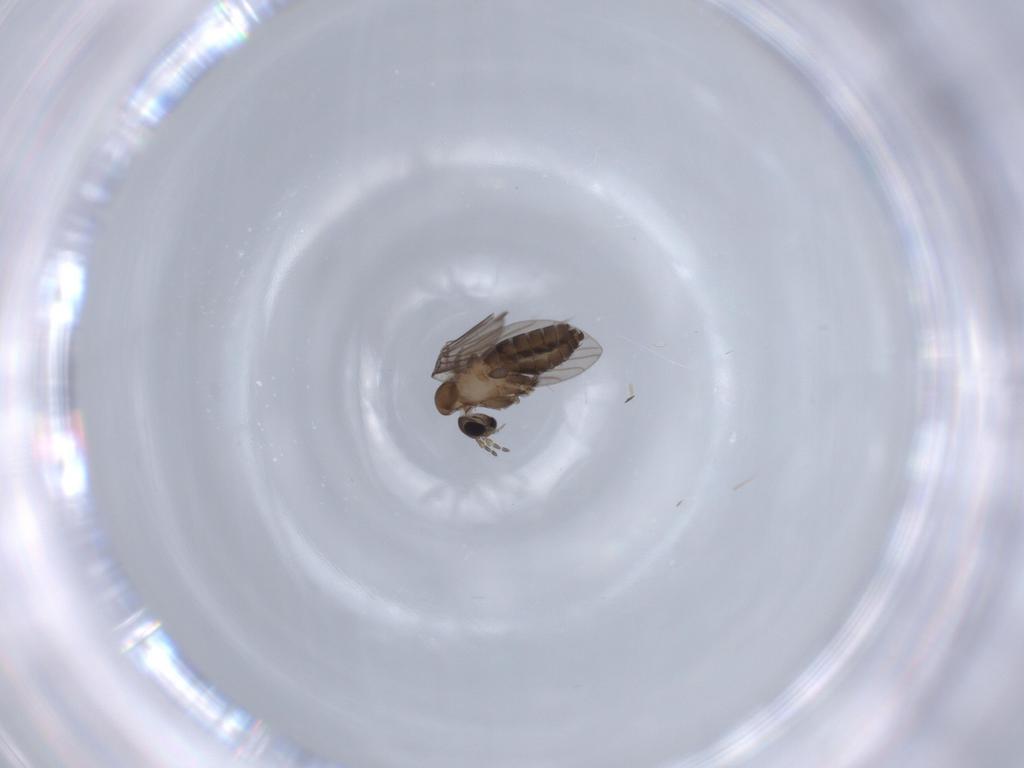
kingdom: Animalia
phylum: Arthropoda
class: Insecta
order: Diptera
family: Psychodidae
